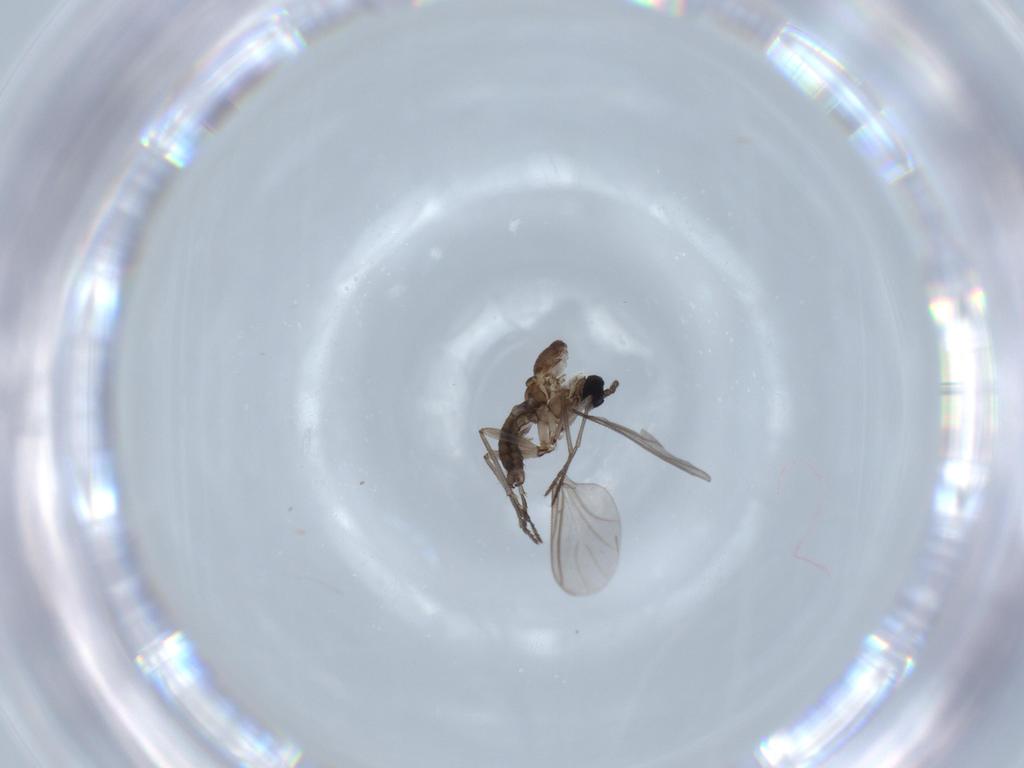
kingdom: Animalia
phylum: Arthropoda
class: Insecta
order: Diptera
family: Sciaridae
